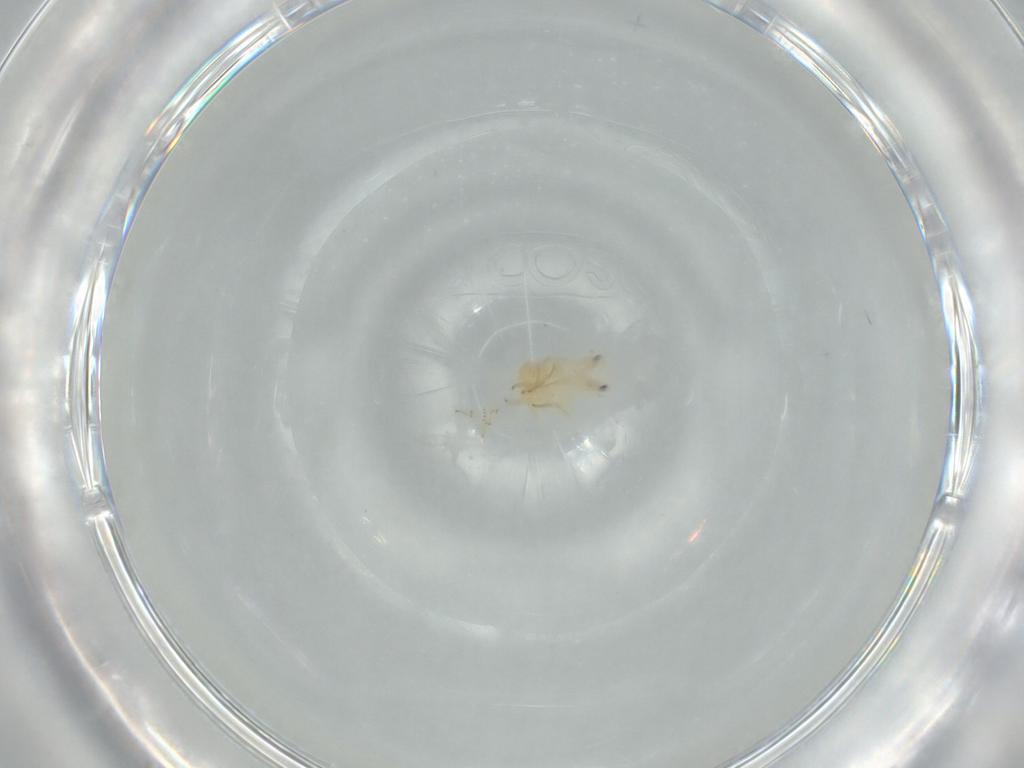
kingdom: Animalia
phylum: Arthropoda
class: Insecta
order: Hemiptera
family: Flatidae
